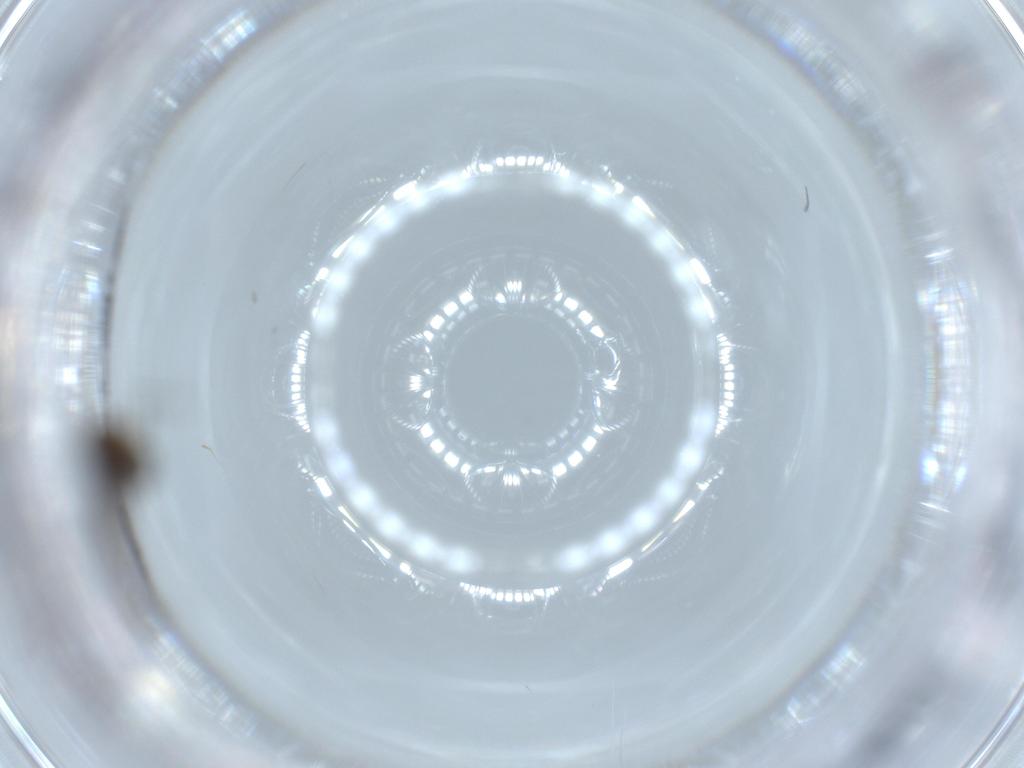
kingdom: Animalia
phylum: Arthropoda
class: Insecta
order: Diptera
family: Chironomidae
